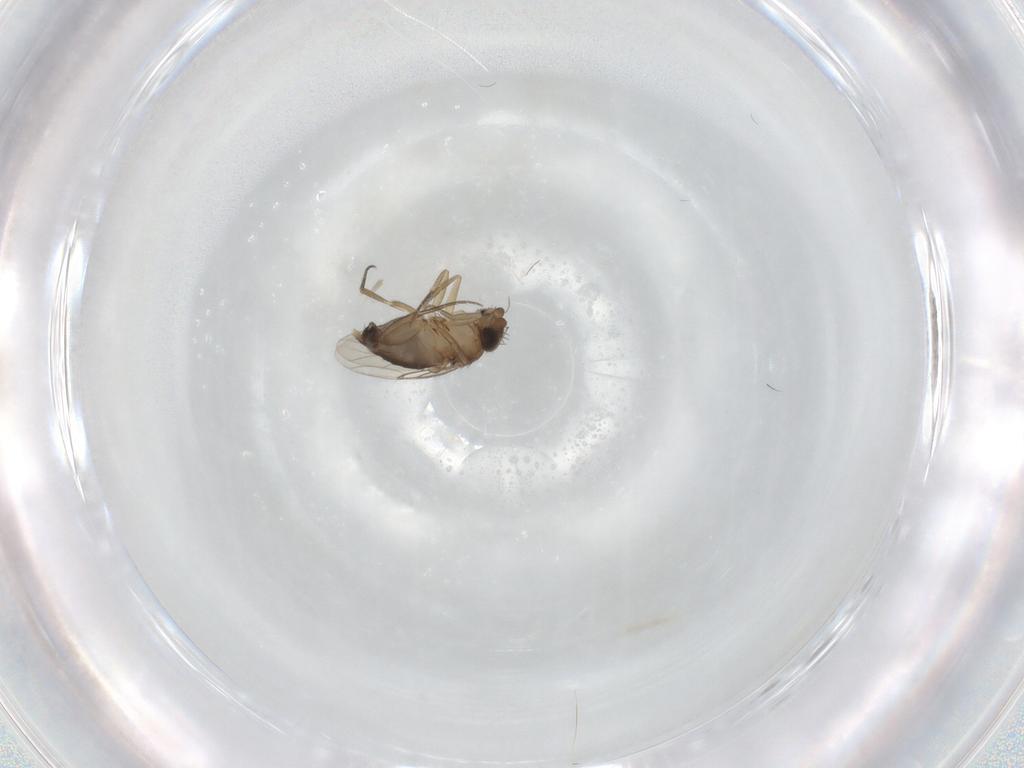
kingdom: Animalia
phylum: Arthropoda
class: Insecta
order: Diptera
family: Phoridae
